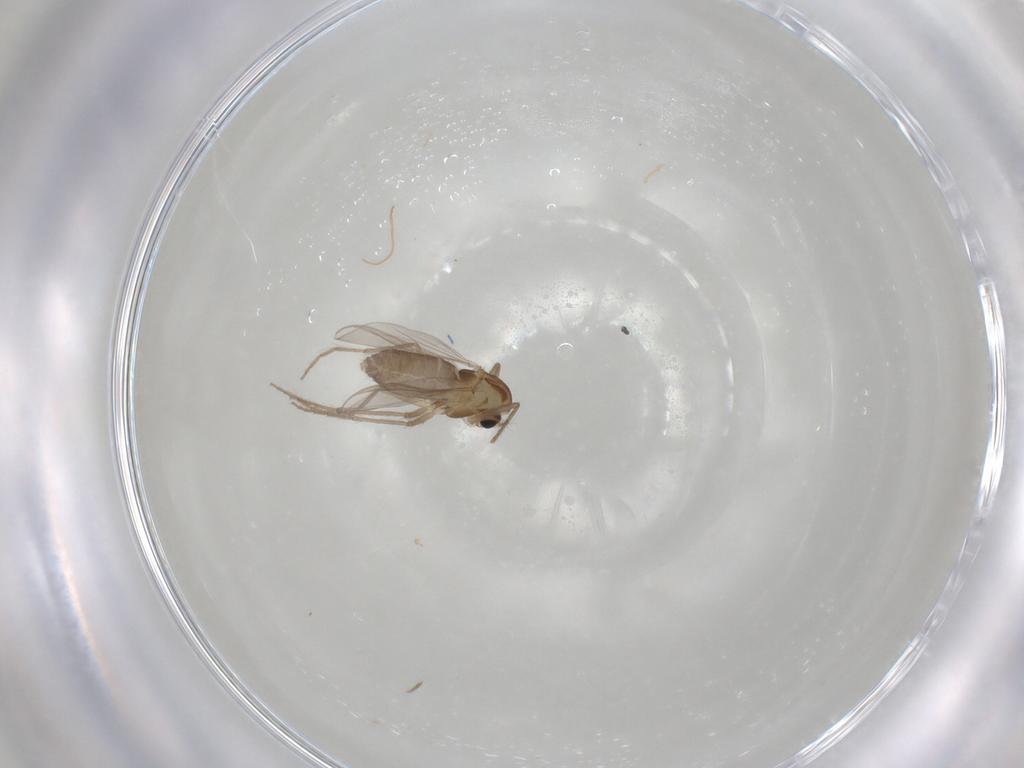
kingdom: Animalia
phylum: Arthropoda
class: Insecta
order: Diptera
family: Chironomidae
